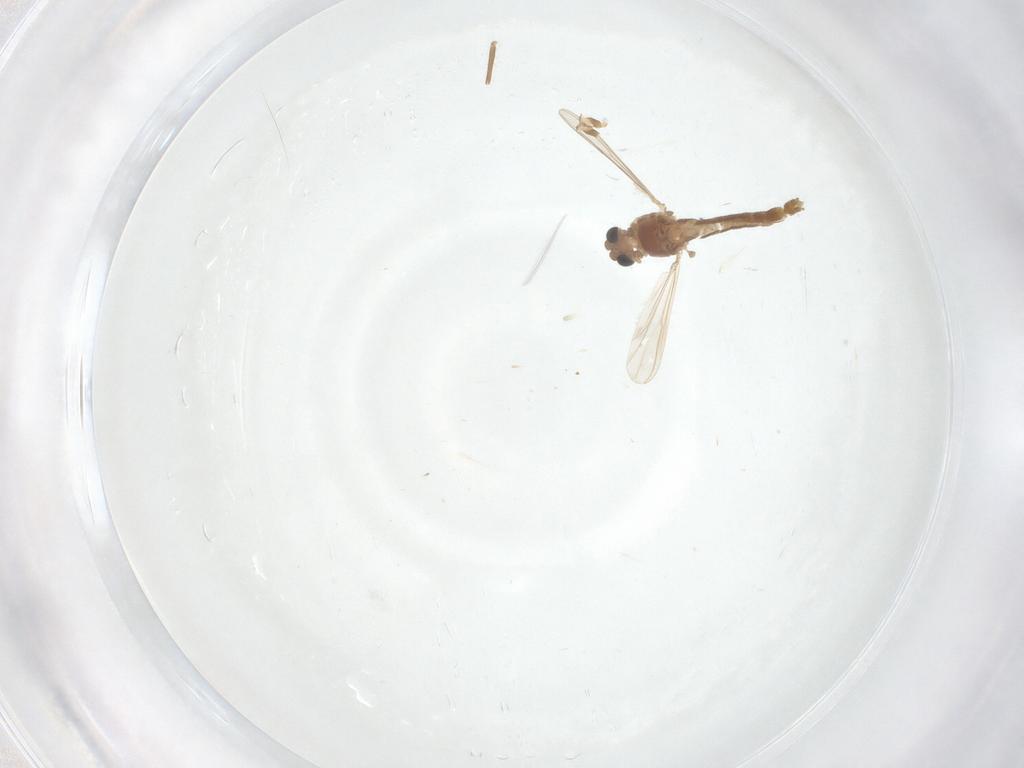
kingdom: Animalia
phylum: Arthropoda
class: Insecta
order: Diptera
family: Chironomidae
